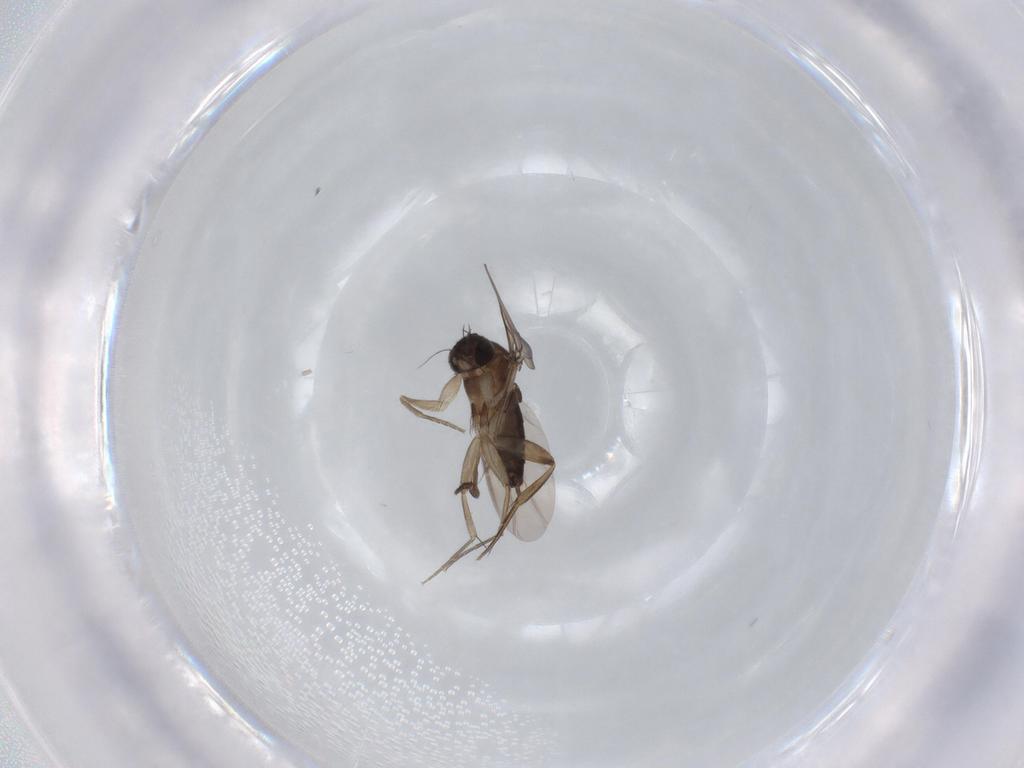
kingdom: Animalia
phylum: Arthropoda
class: Insecta
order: Diptera
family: Phoridae
